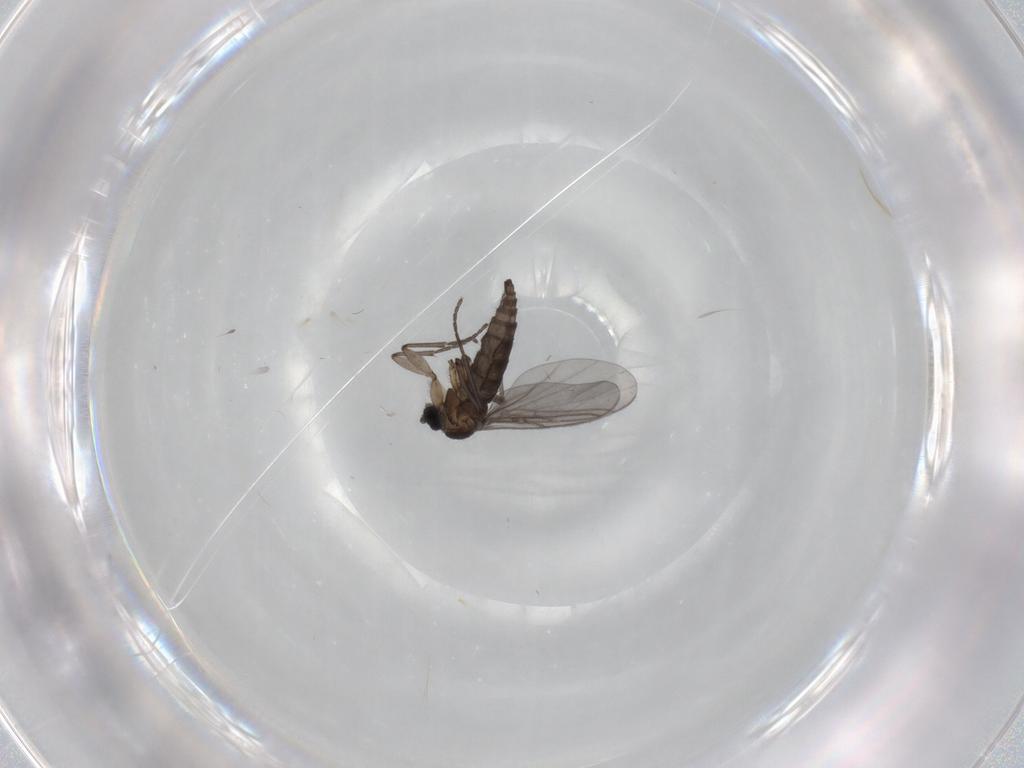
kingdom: Animalia
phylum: Arthropoda
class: Insecta
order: Diptera
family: Sciaridae
